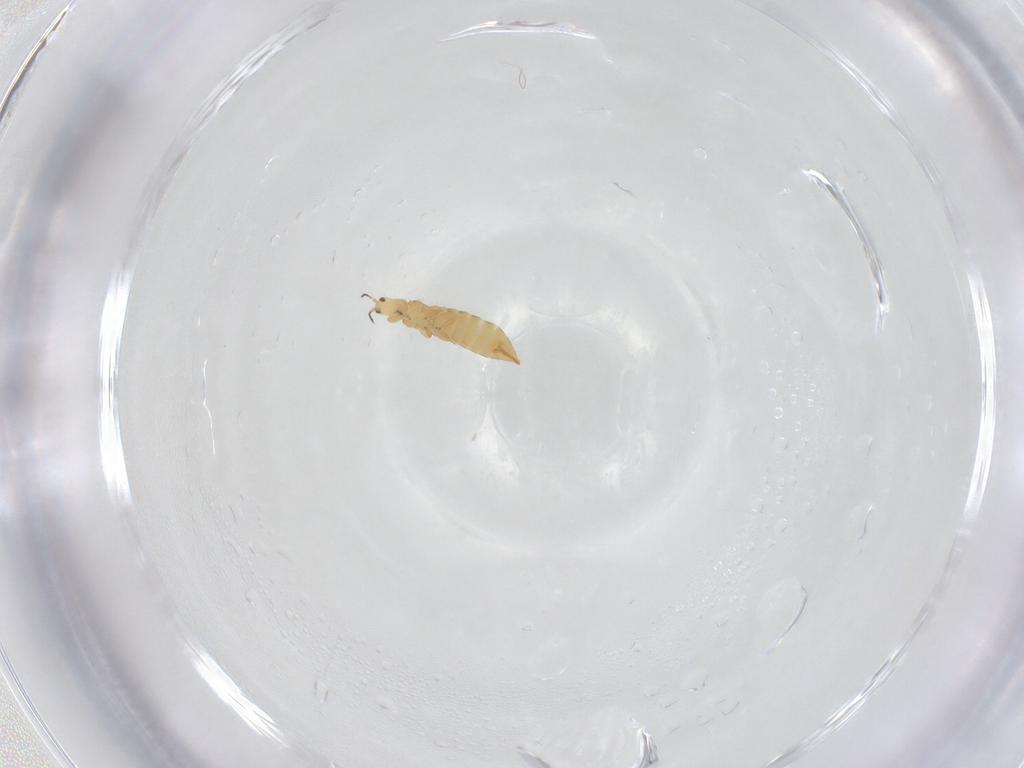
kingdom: Animalia
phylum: Arthropoda
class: Insecta
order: Thysanoptera
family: Thripidae
